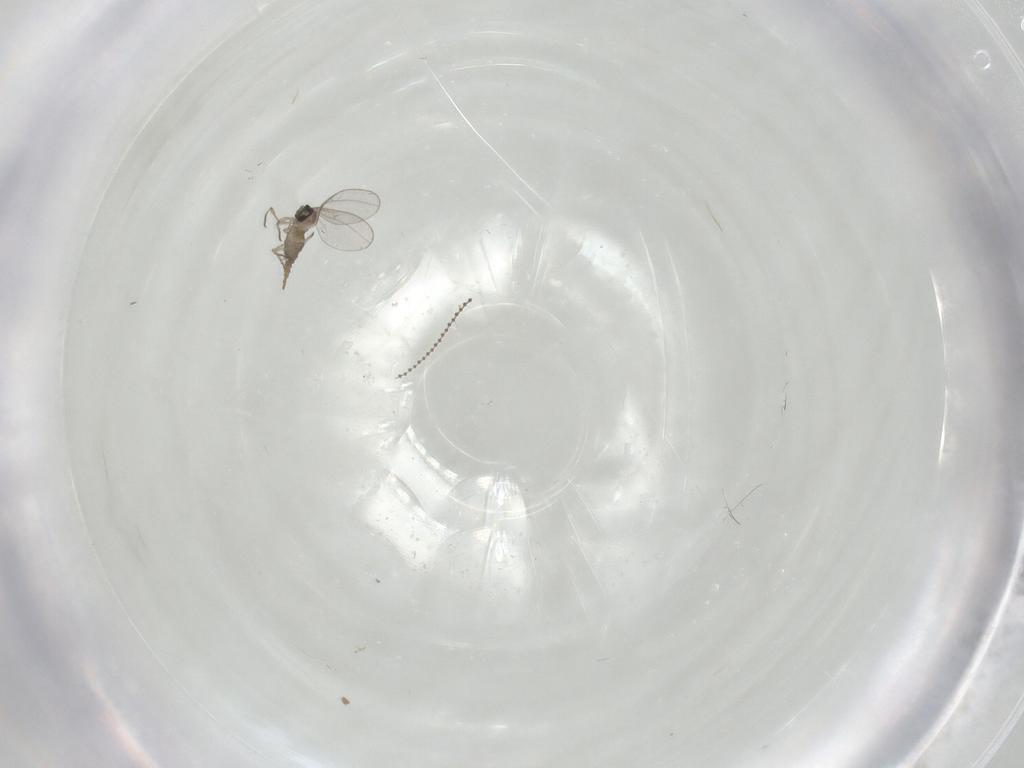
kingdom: Animalia
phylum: Arthropoda
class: Insecta
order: Diptera
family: Cecidomyiidae
